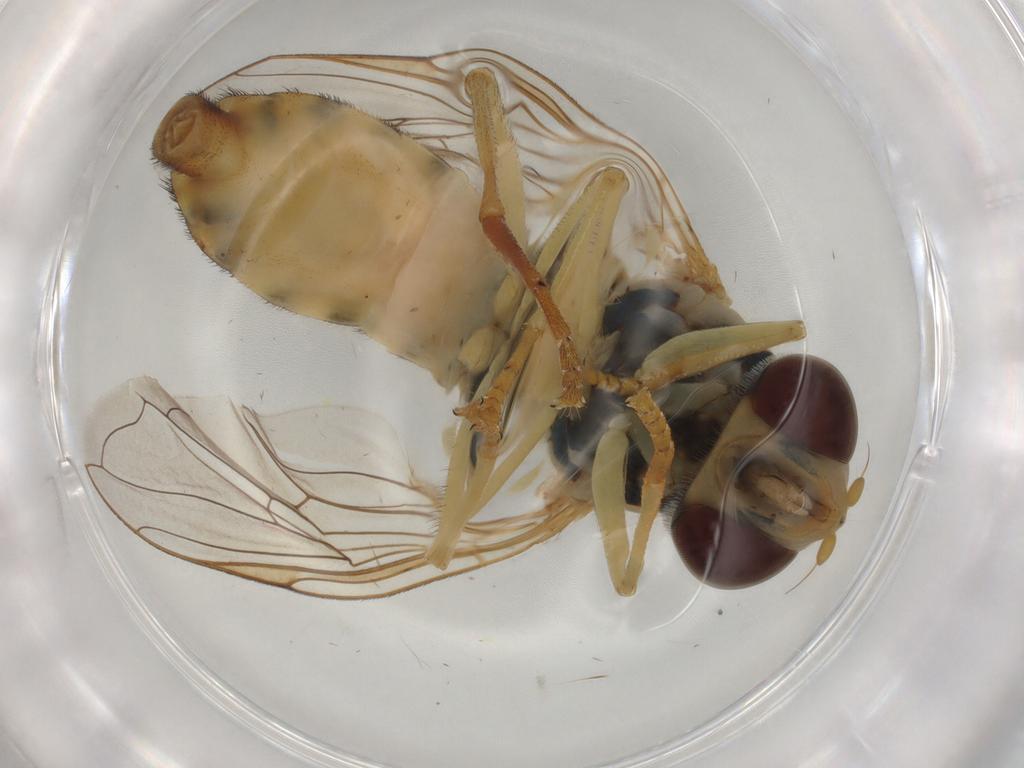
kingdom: Animalia
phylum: Arthropoda
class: Insecta
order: Diptera
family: Syrphidae
